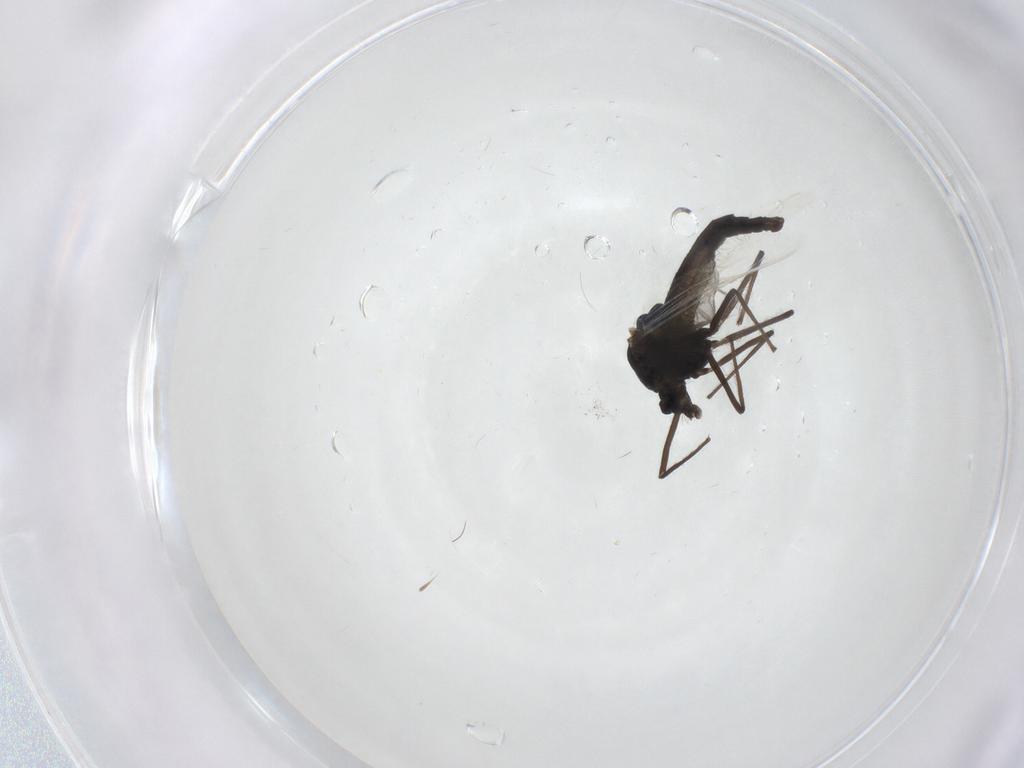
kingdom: Animalia
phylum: Arthropoda
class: Insecta
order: Diptera
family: Chironomidae
